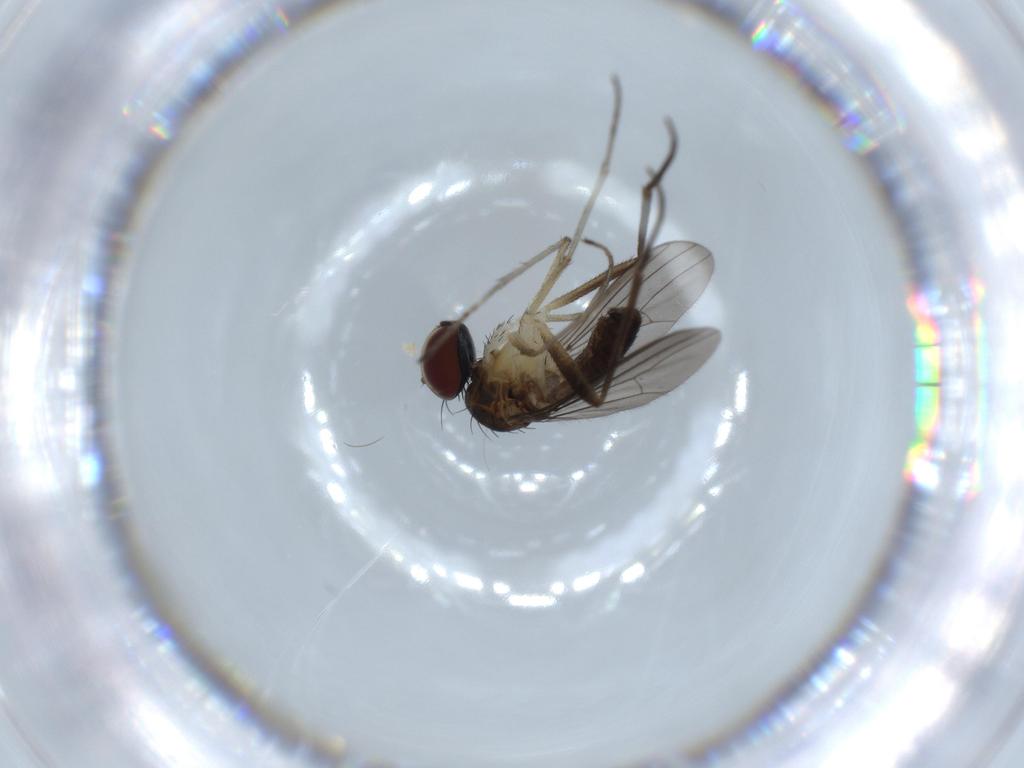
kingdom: Animalia
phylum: Arthropoda
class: Insecta
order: Diptera
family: Dolichopodidae
